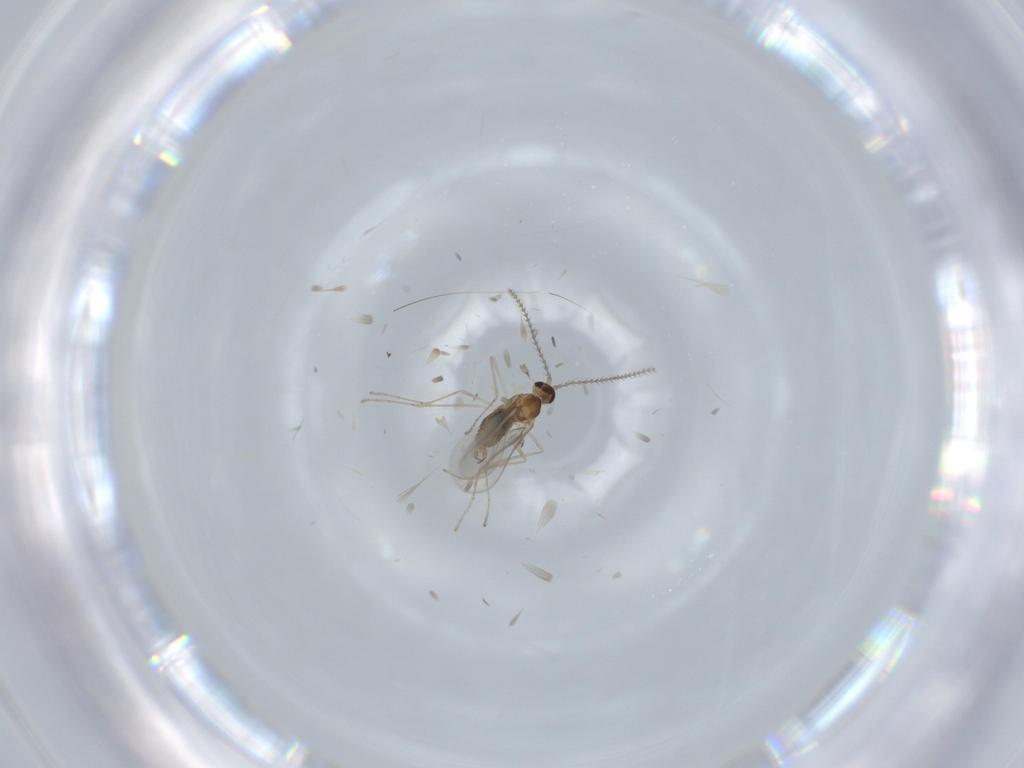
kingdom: Animalia
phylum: Arthropoda
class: Insecta
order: Diptera
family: Cecidomyiidae
